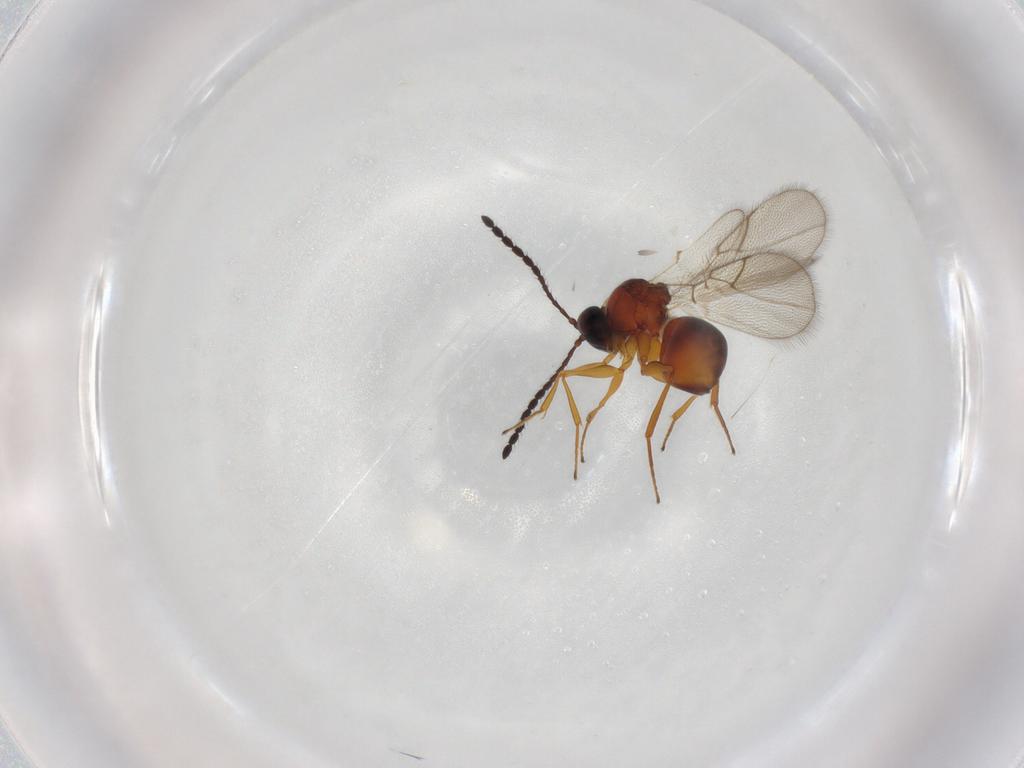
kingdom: Animalia
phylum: Arthropoda
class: Insecta
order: Hymenoptera
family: Figitidae
